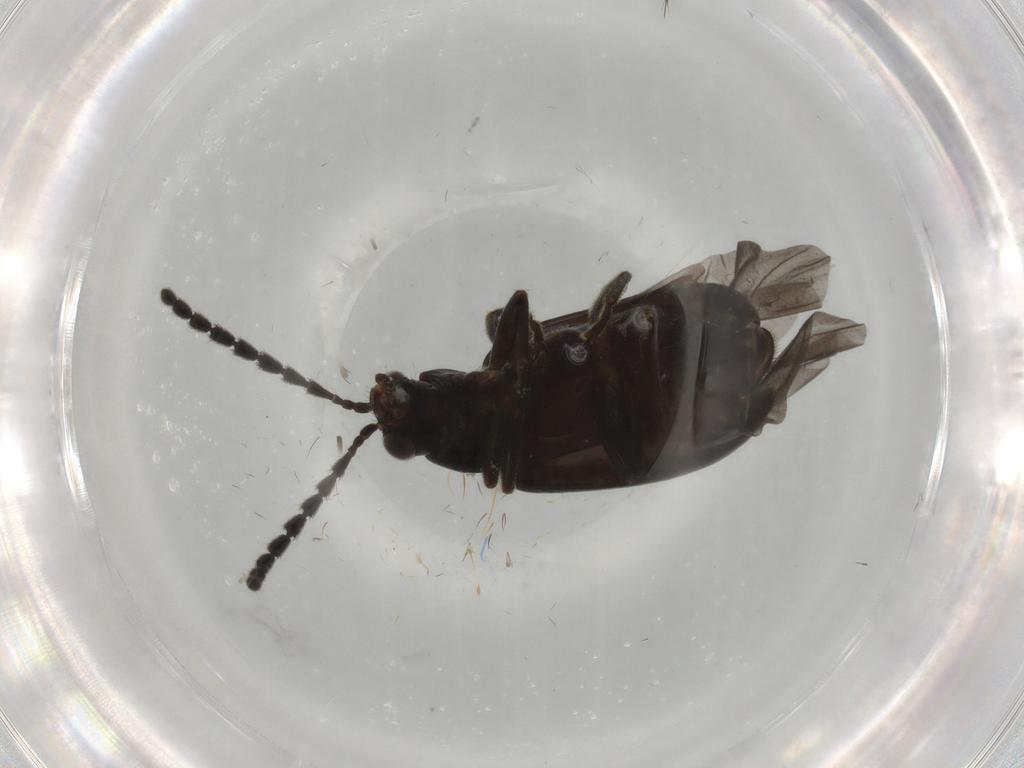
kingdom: Animalia
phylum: Arthropoda
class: Insecta
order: Coleoptera
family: Chrysomelidae
